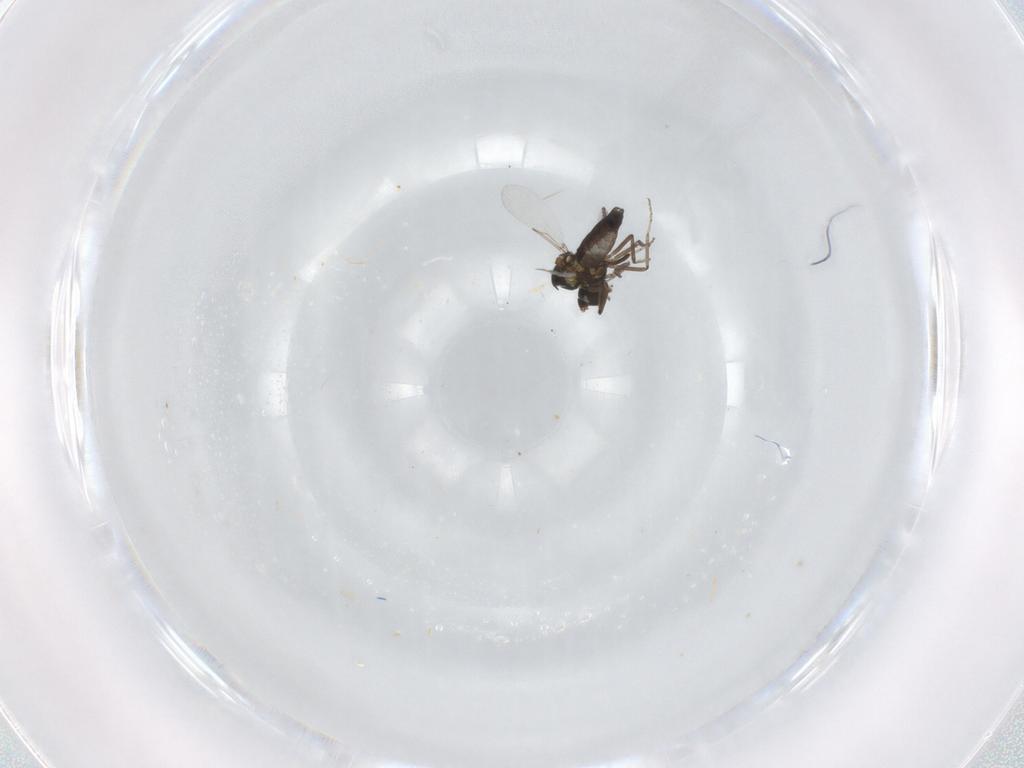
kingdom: Animalia
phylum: Arthropoda
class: Insecta
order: Diptera
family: Ceratopogonidae
